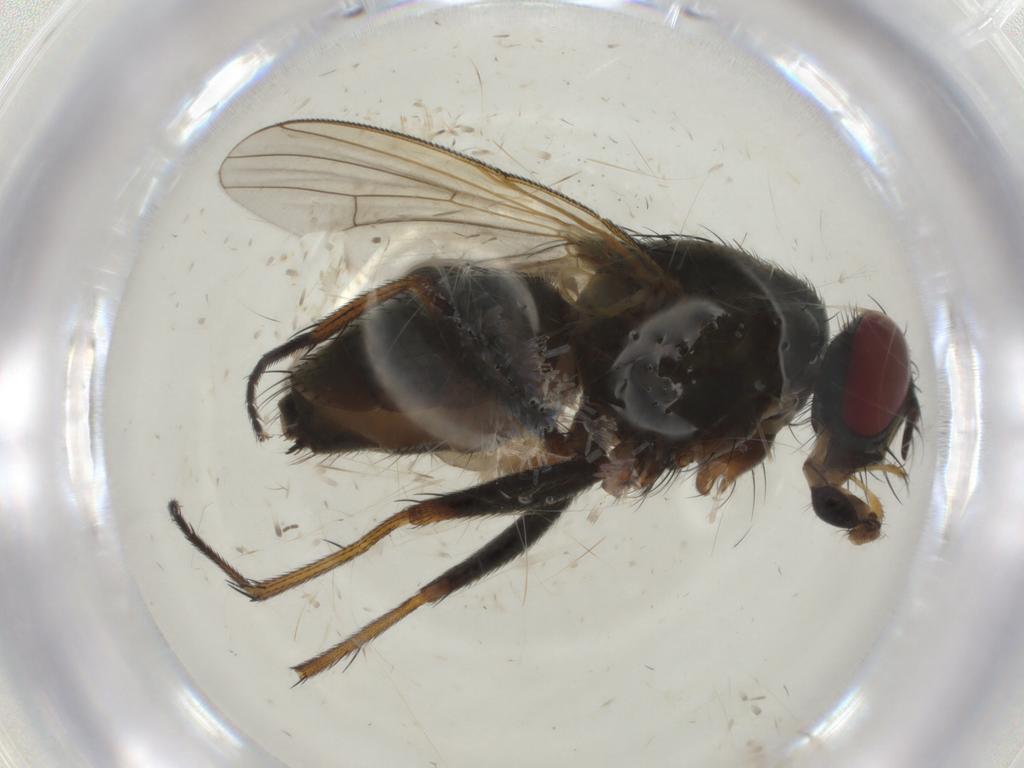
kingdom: Animalia
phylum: Arthropoda
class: Insecta
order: Diptera
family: Muscidae
